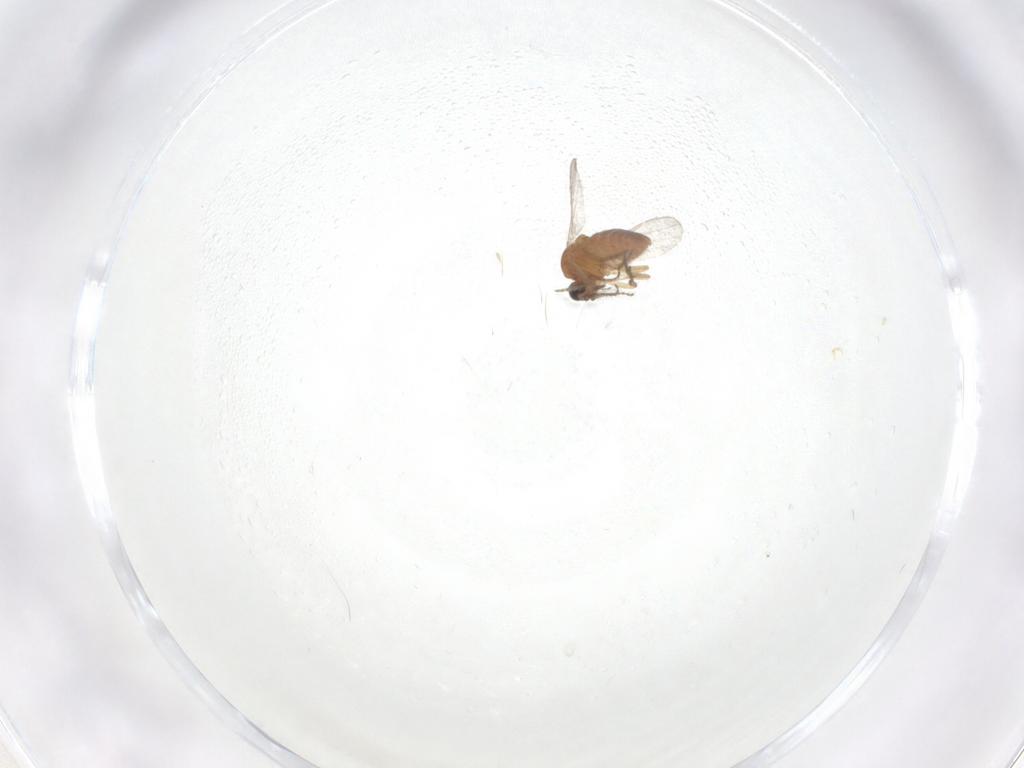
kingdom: Animalia
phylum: Arthropoda
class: Insecta
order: Diptera
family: Ceratopogonidae
